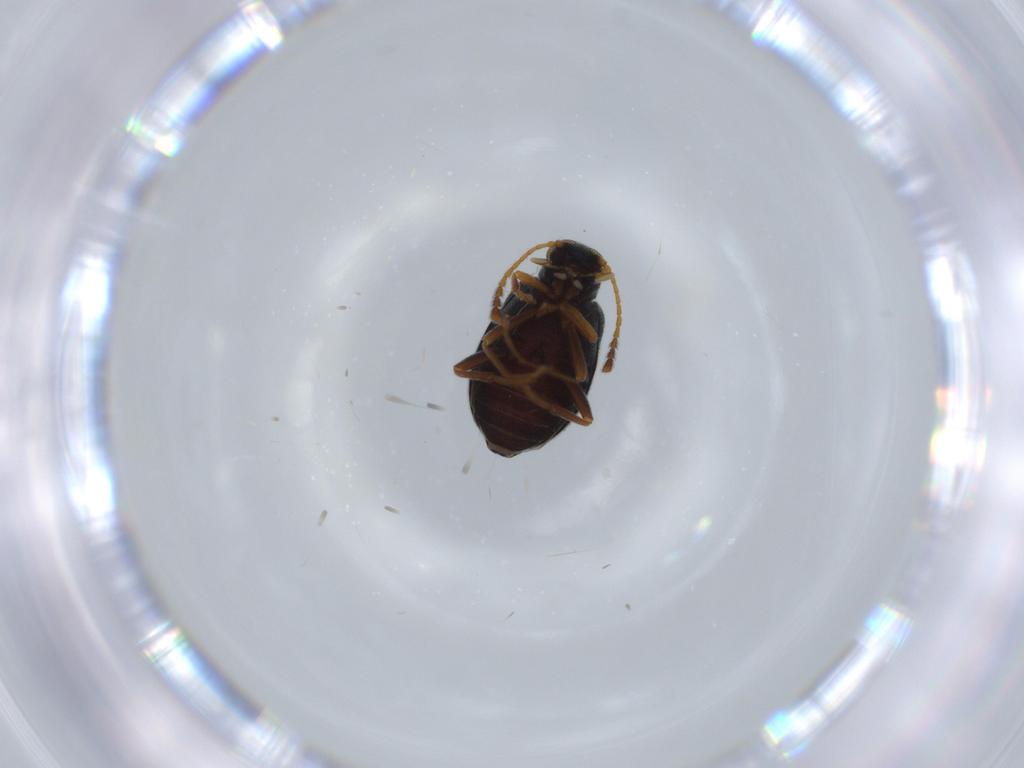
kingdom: Animalia
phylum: Arthropoda
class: Insecta
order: Coleoptera
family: Aderidae
